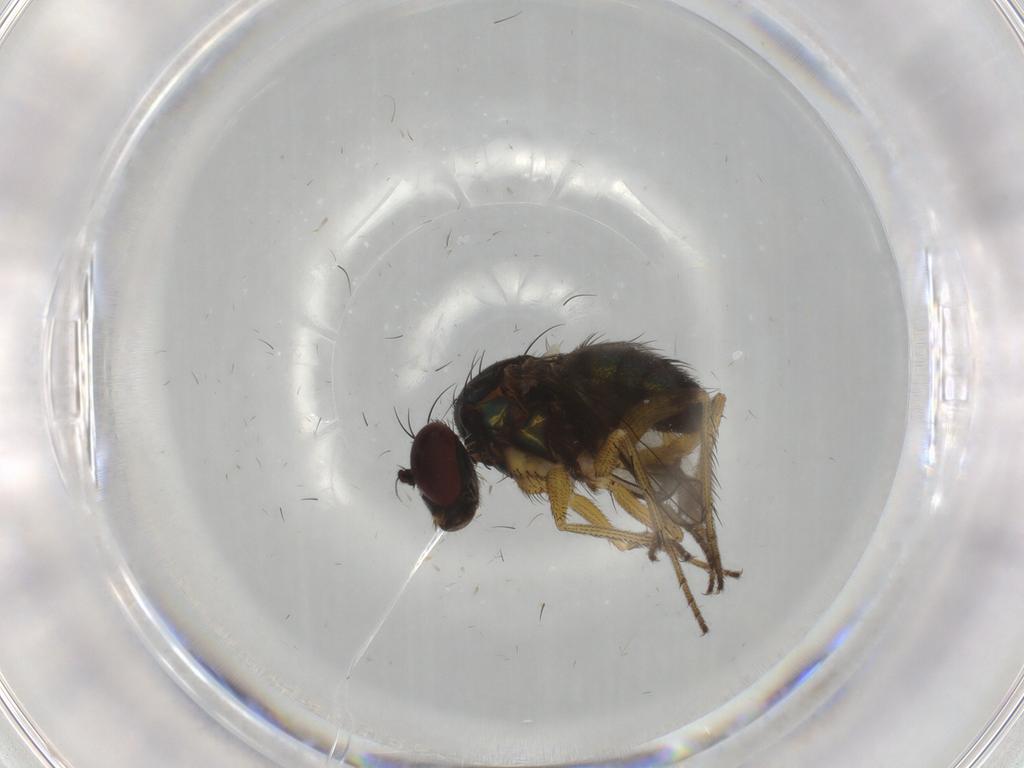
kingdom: Animalia
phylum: Arthropoda
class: Insecta
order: Diptera
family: Dolichopodidae
